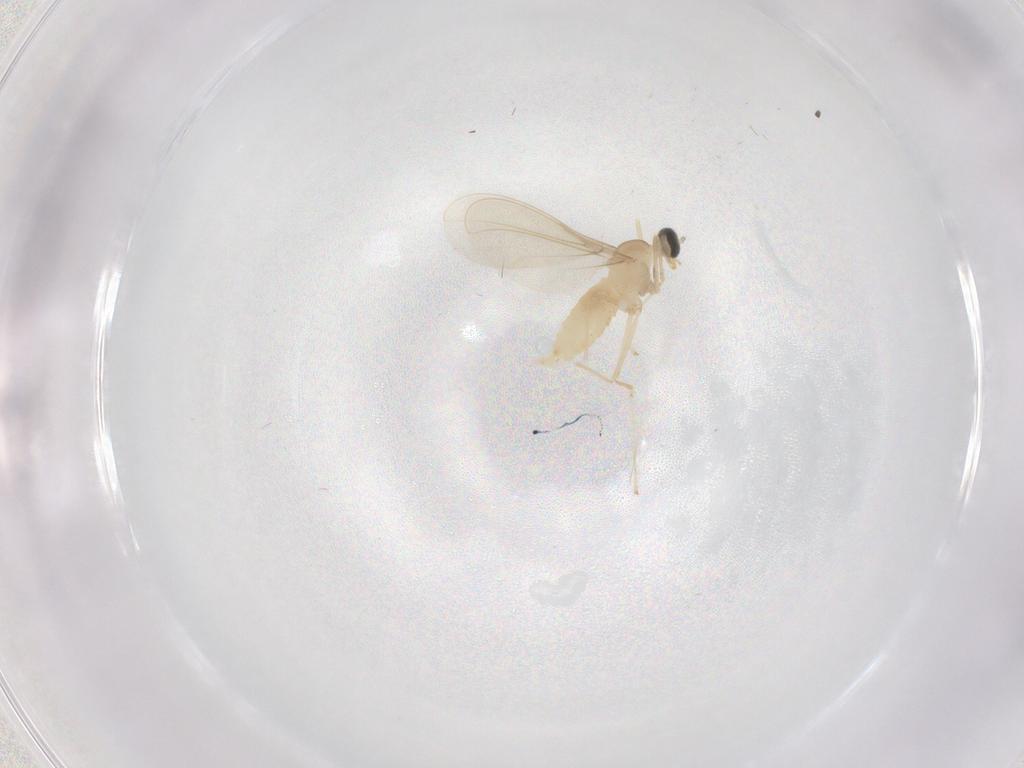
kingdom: Animalia
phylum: Arthropoda
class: Insecta
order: Diptera
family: Cecidomyiidae
